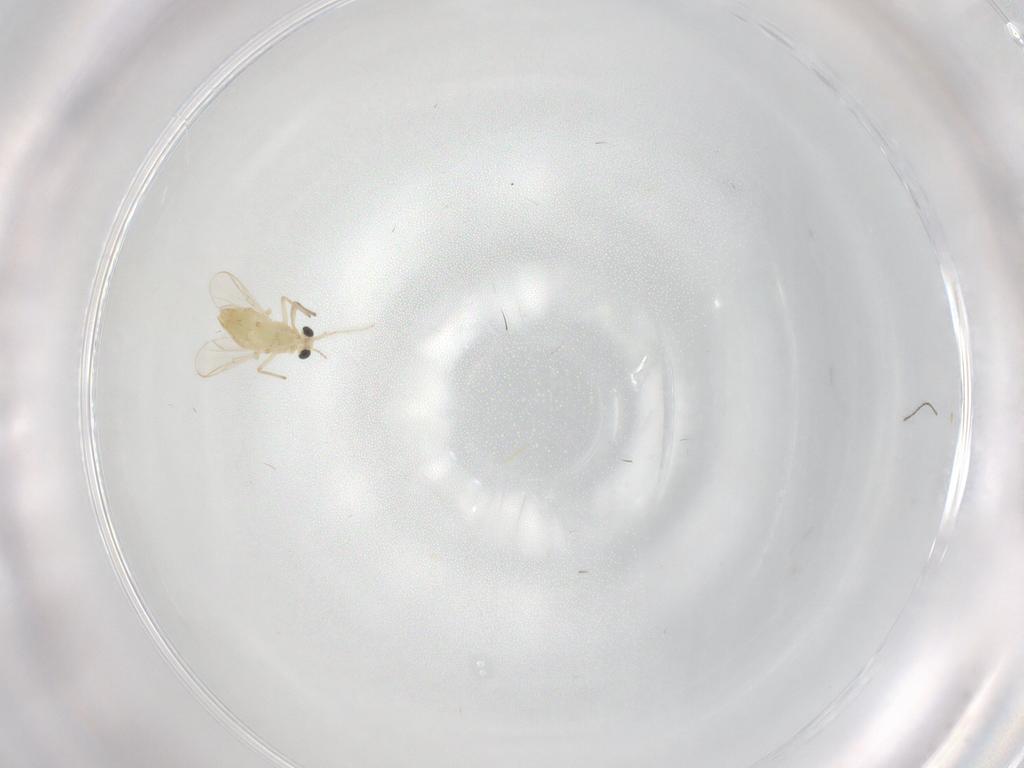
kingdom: Animalia
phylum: Arthropoda
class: Insecta
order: Diptera
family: Chironomidae
